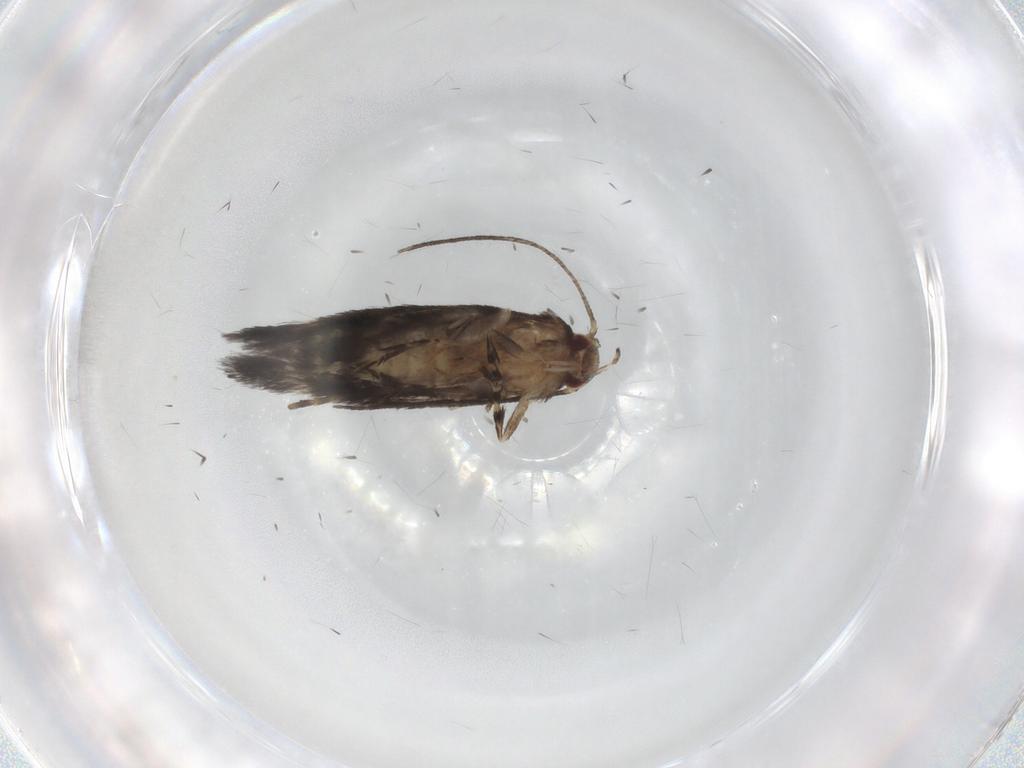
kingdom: Animalia
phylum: Arthropoda
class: Insecta
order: Lepidoptera
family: Elachistidae
